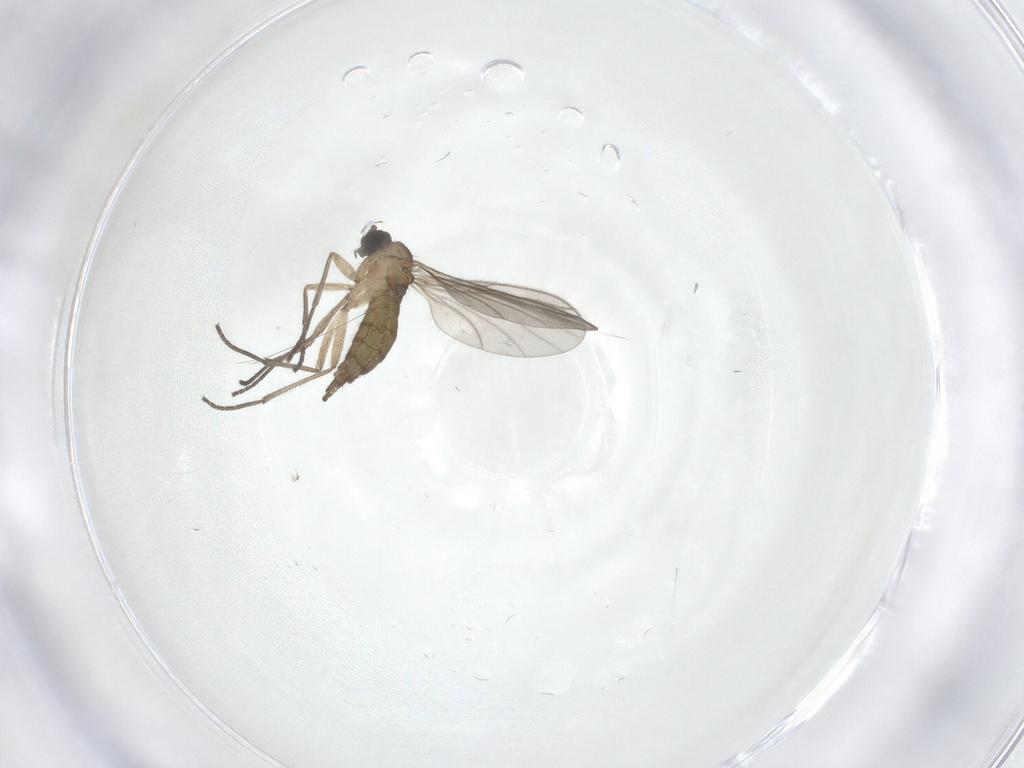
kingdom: Animalia
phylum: Arthropoda
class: Insecta
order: Diptera
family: Sciaridae
